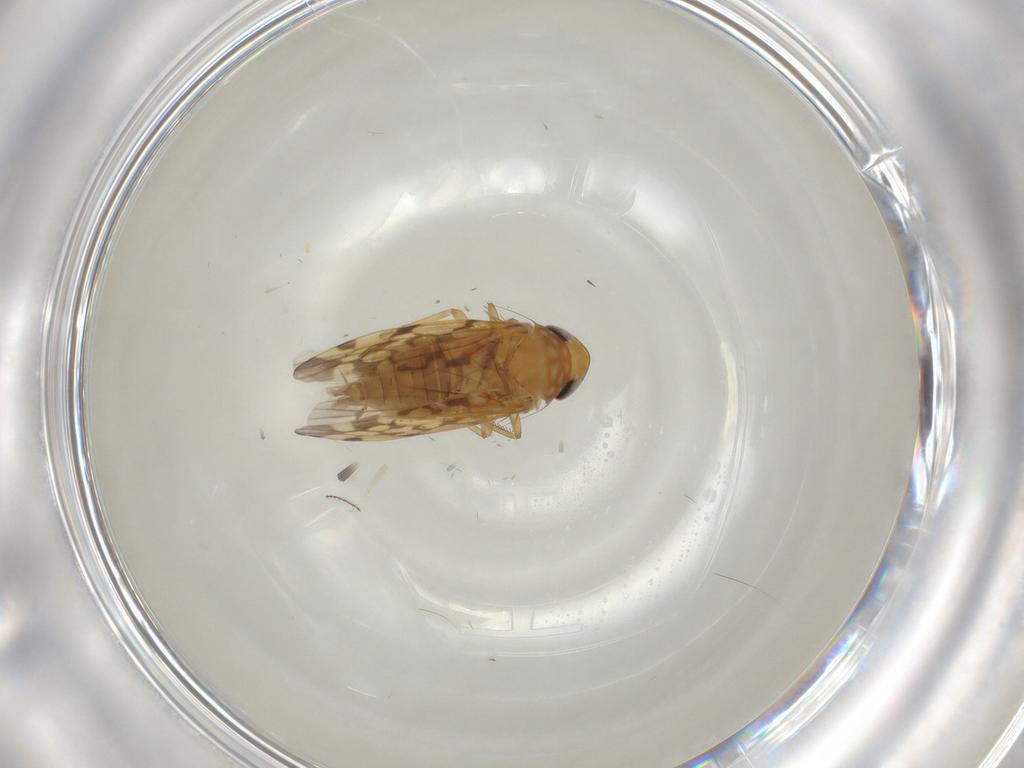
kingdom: Animalia
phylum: Arthropoda
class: Insecta
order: Hemiptera
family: Cicadellidae
